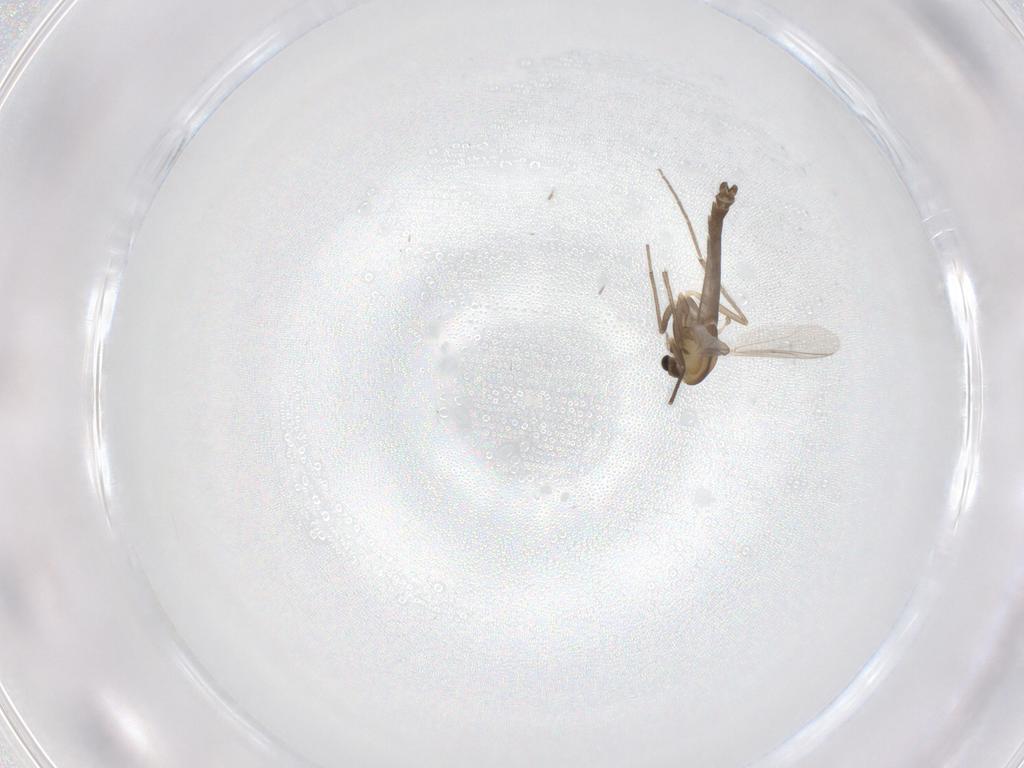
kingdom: Animalia
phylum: Arthropoda
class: Insecta
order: Diptera
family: Chironomidae
